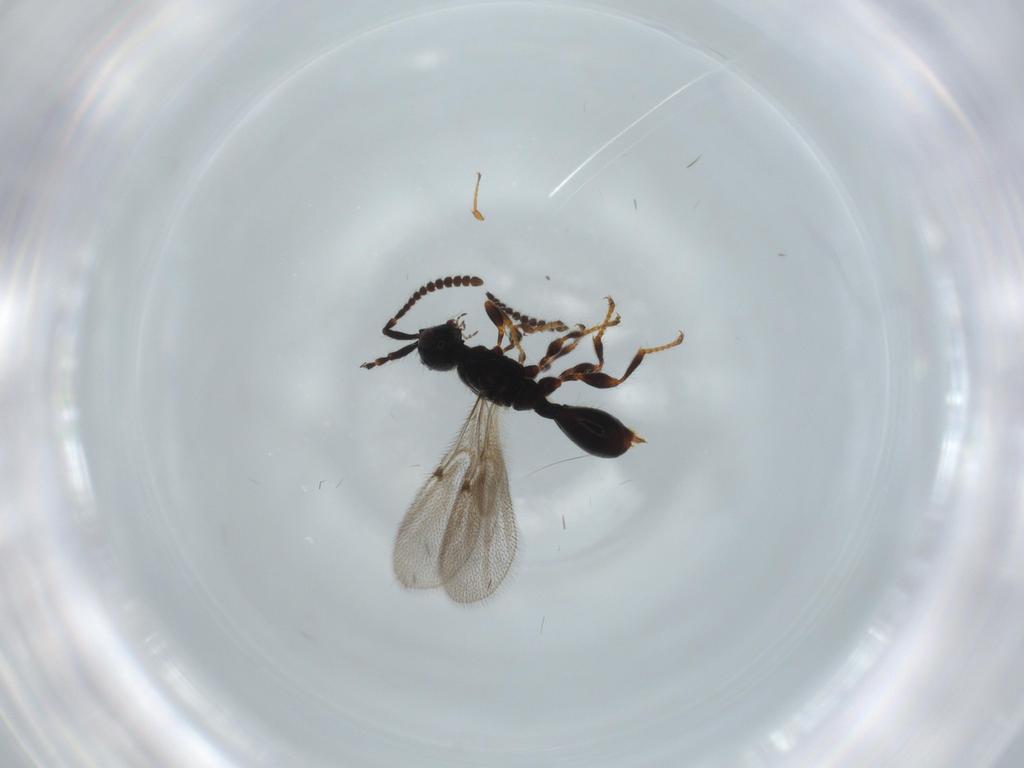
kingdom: Animalia
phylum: Arthropoda
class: Insecta
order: Hymenoptera
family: Diapriidae
